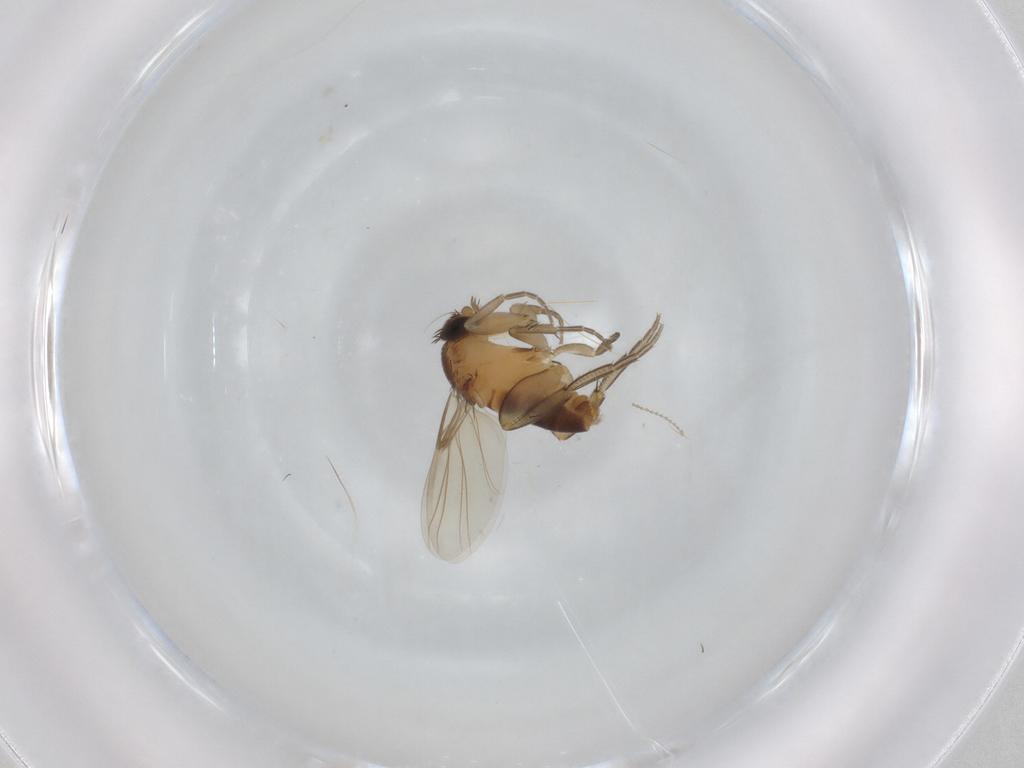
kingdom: Animalia
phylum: Arthropoda
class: Insecta
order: Diptera
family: Phoridae
